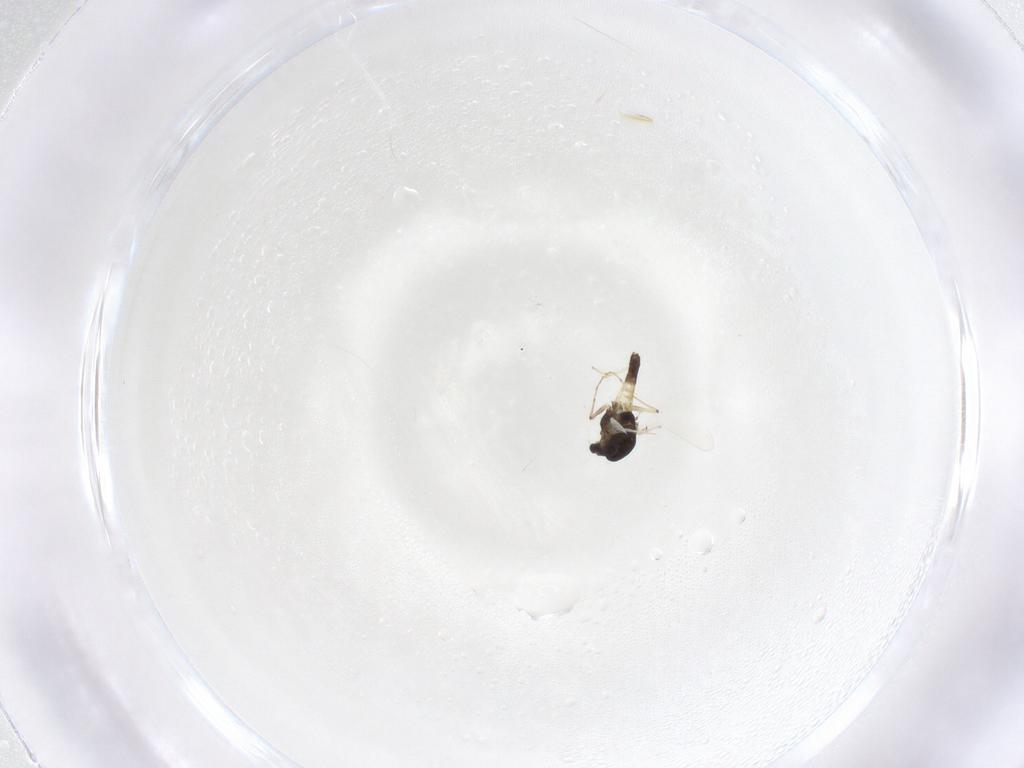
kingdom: Animalia
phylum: Arthropoda
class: Insecta
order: Diptera
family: Chironomidae
